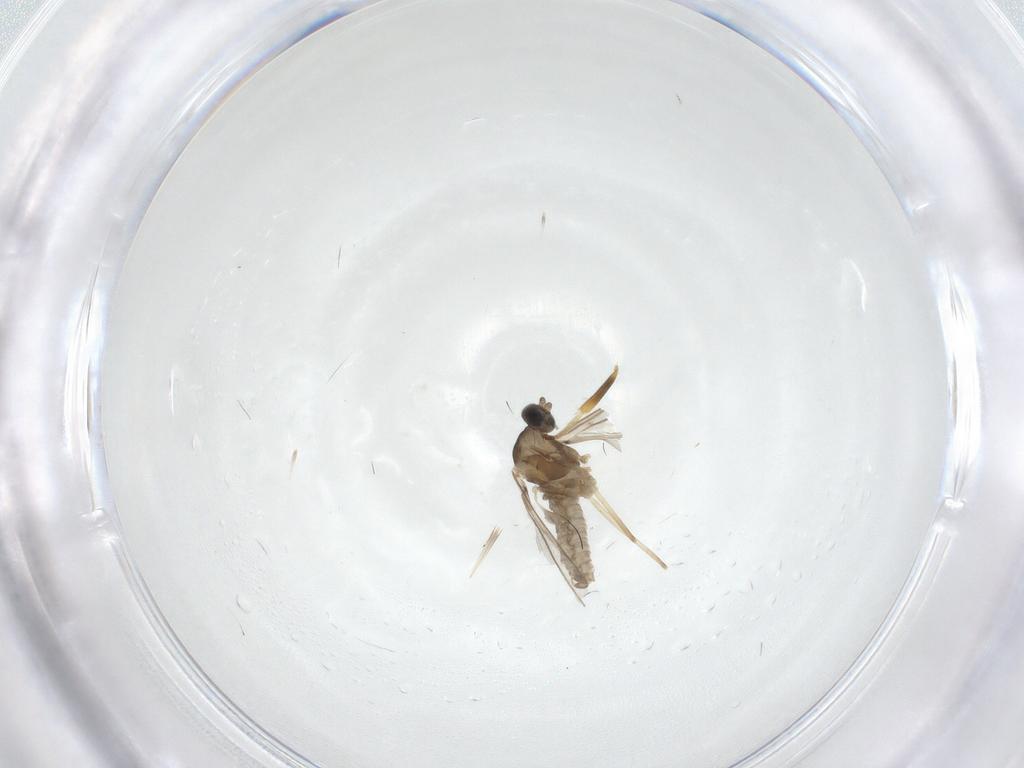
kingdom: Animalia
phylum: Arthropoda
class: Insecta
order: Diptera
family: Cecidomyiidae
